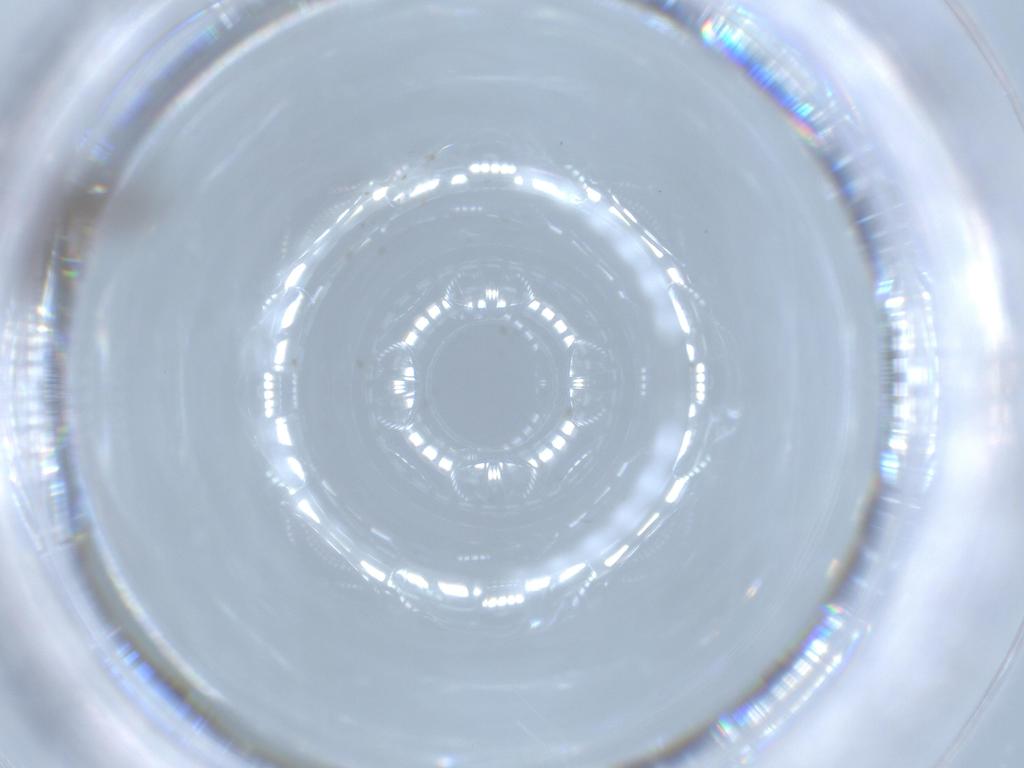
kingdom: Animalia
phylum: Arthropoda
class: Insecta
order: Diptera
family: Sciaridae
